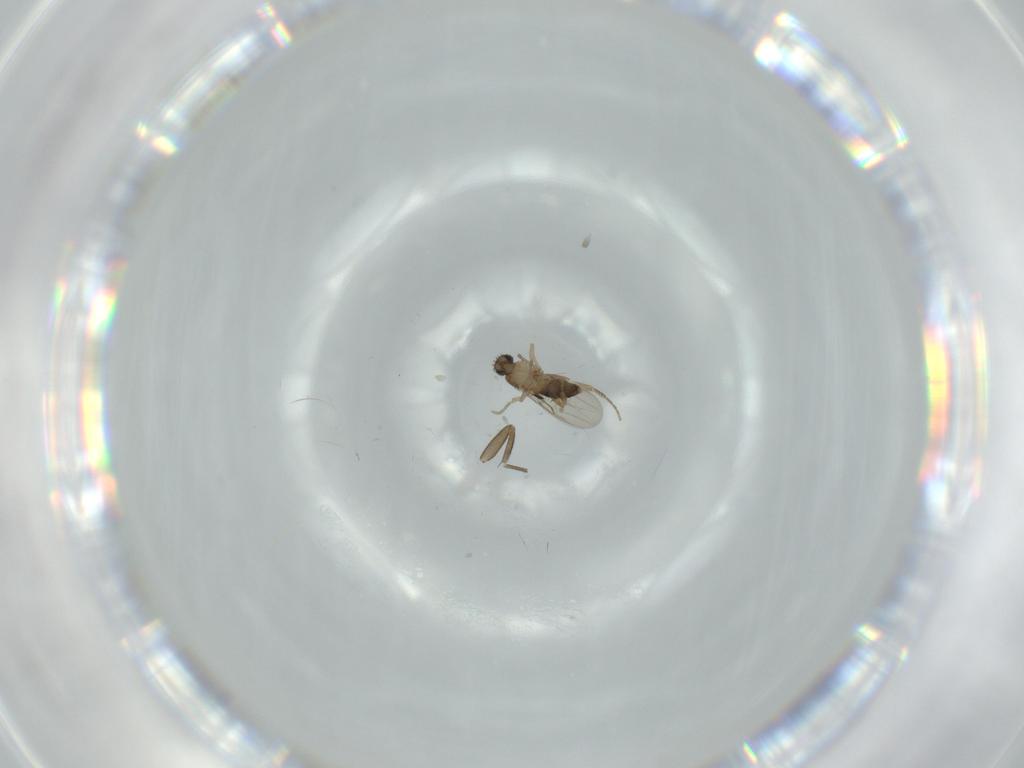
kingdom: Animalia
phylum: Arthropoda
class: Insecta
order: Diptera
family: Phoridae
